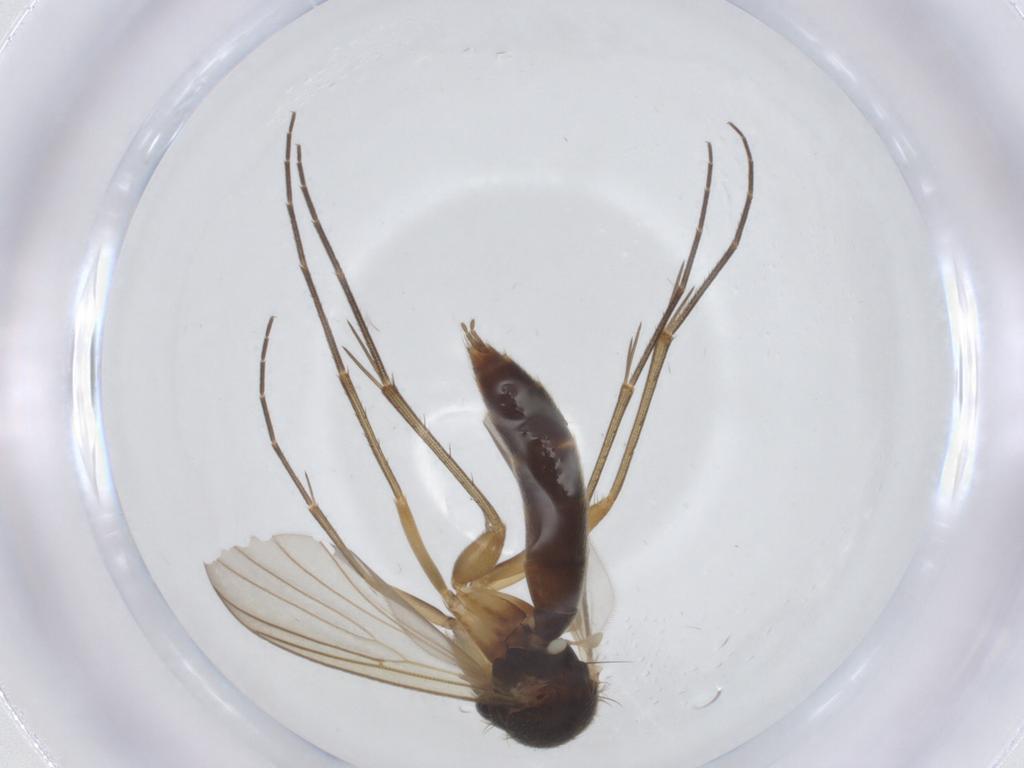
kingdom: Animalia
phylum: Arthropoda
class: Insecta
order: Diptera
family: Mycetophilidae
